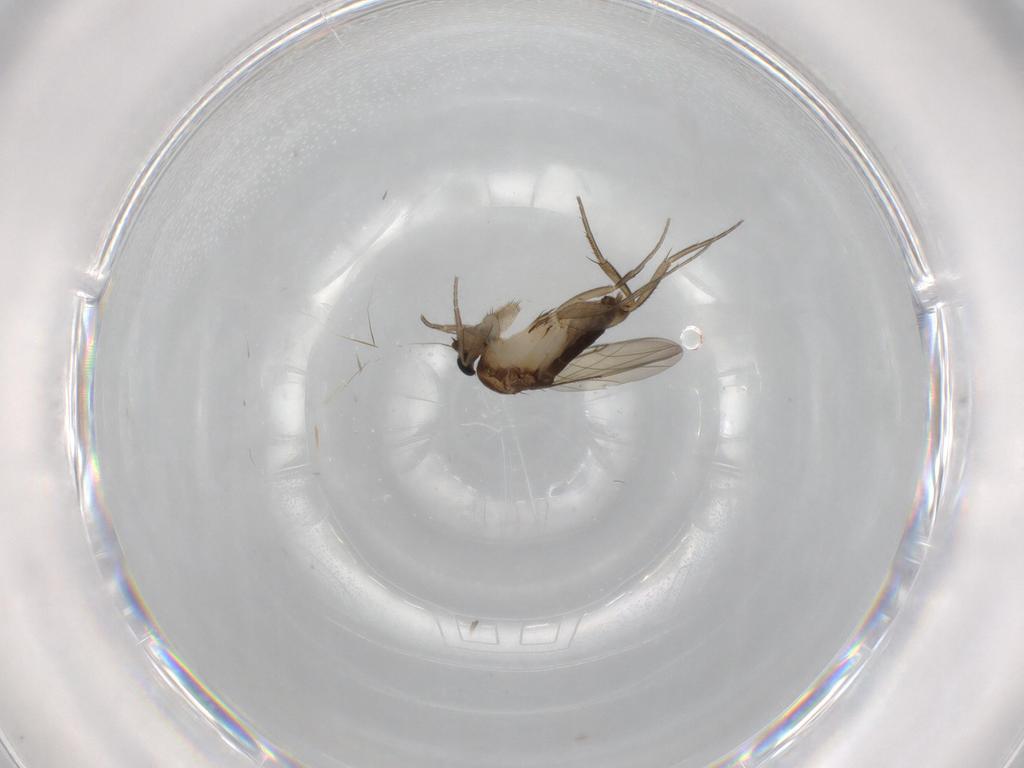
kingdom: Animalia
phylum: Arthropoda
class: Insecta
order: Diptera
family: Phoridae
